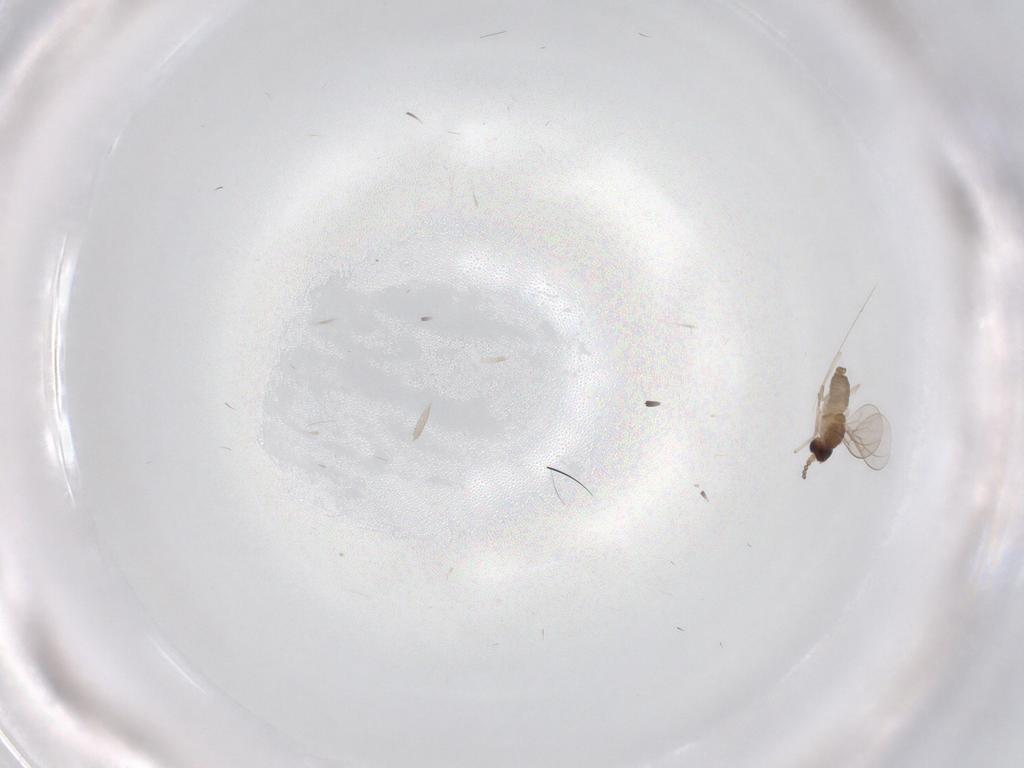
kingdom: Animalia
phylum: Arthropoda
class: Insecta
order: Diptera
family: Cecidomyiidae
